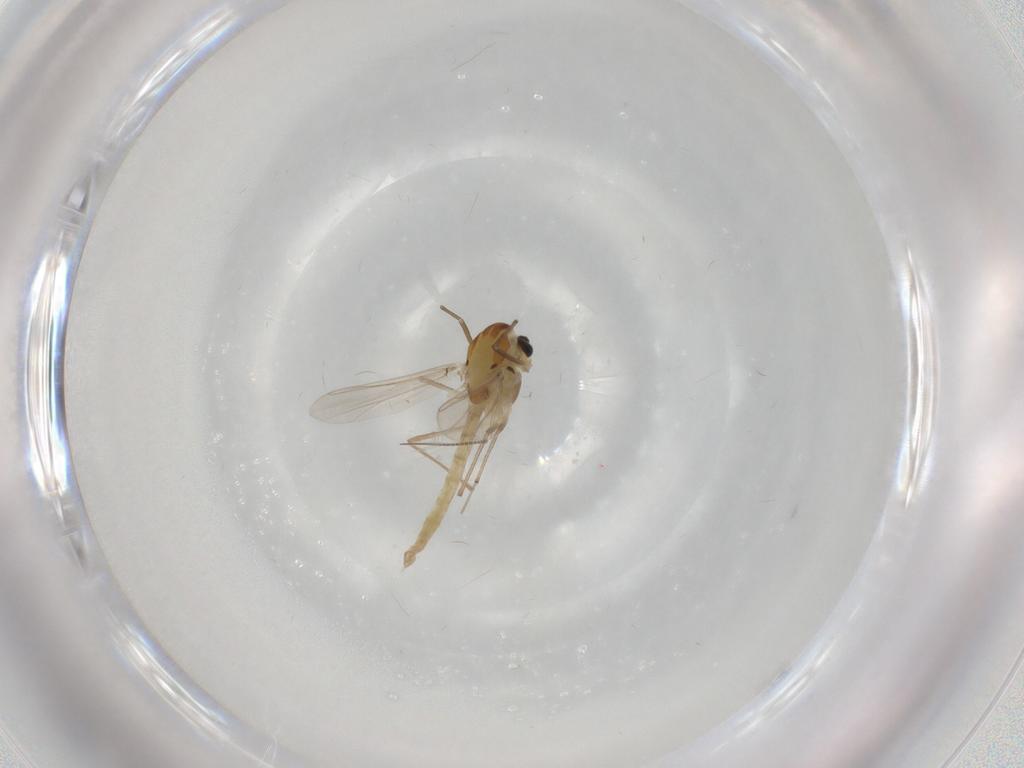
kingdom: Animalia
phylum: Arthropoda
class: Insecta
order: Diptera
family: Chironomidae
